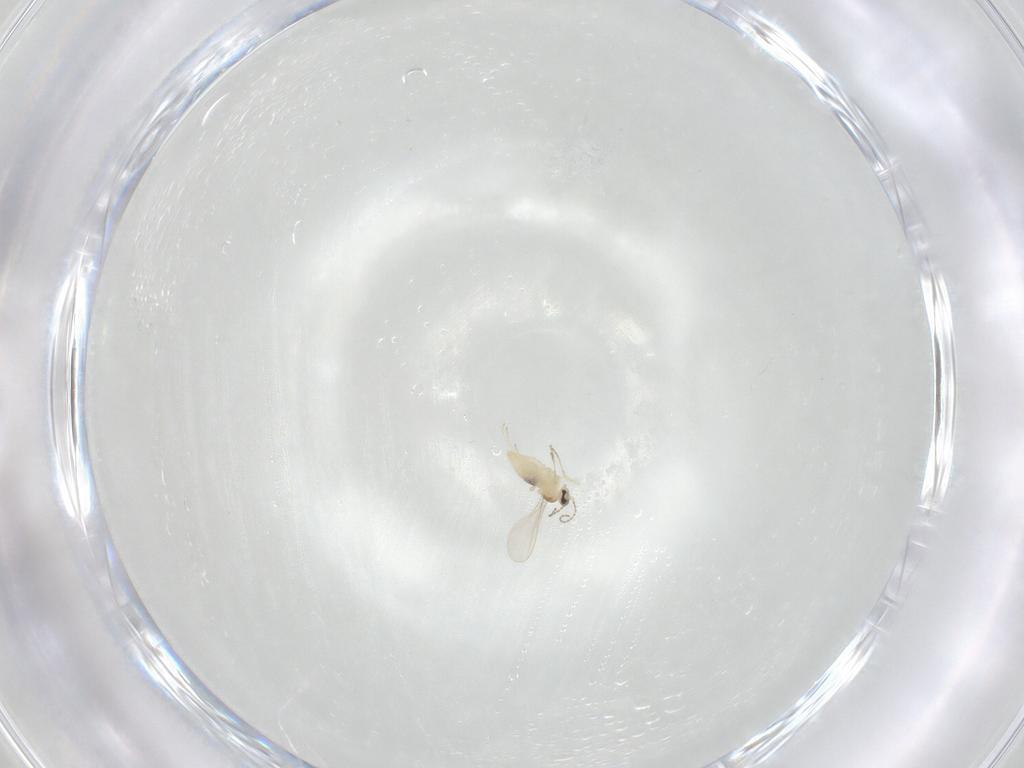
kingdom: Animalia
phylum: Arthropoda
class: Insecta
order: Diptera
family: Cecidomyiidae
